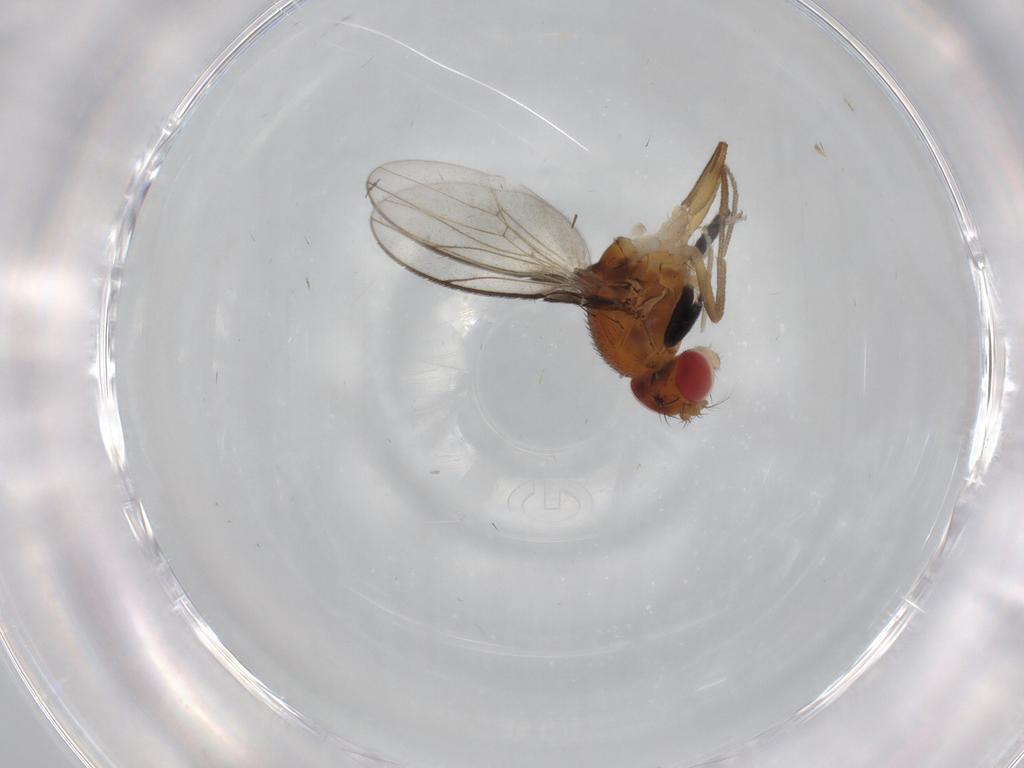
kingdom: Animalia
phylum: Arthropoda
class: Insecta
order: Diptera
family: Drosophilidae
